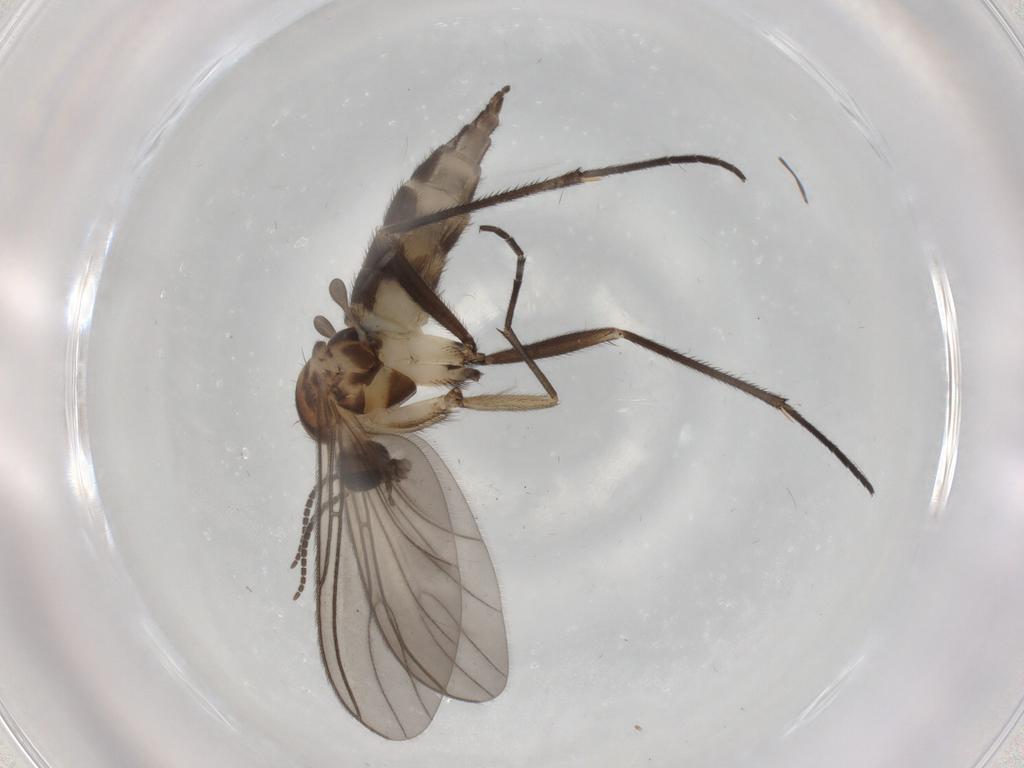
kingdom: Animalia
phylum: Arthropoda
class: Insecta
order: Diptera
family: Sciaridae
